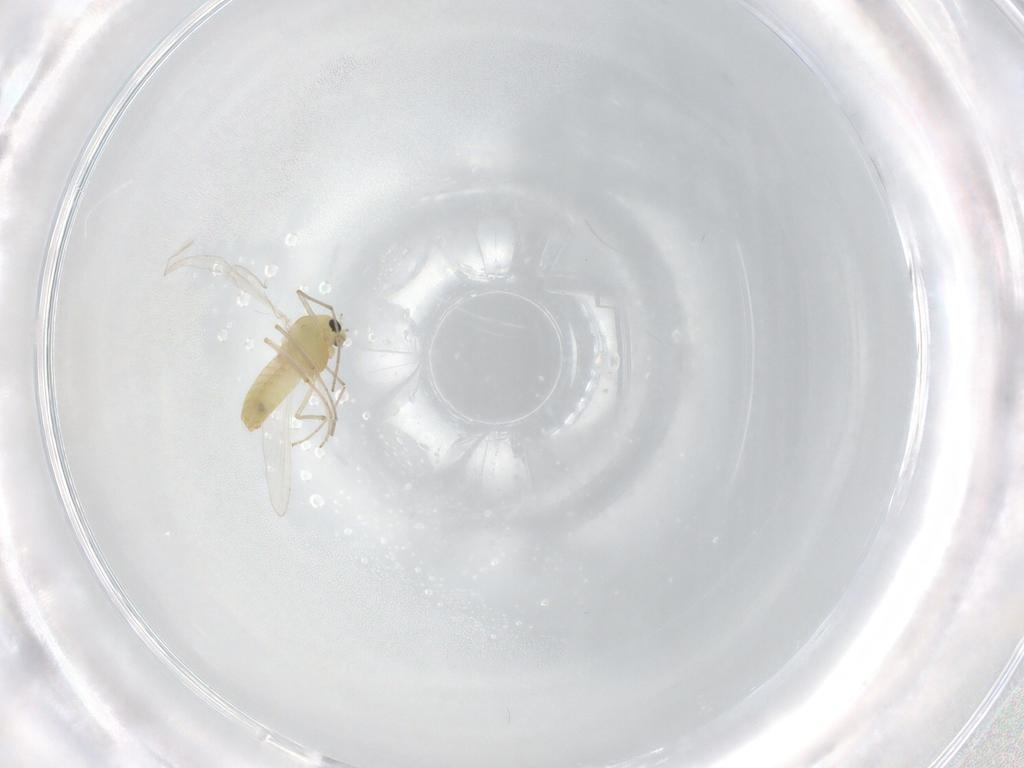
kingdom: Animalia
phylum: Arthropoda
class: Insecta
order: Diptera
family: Chironomidae
